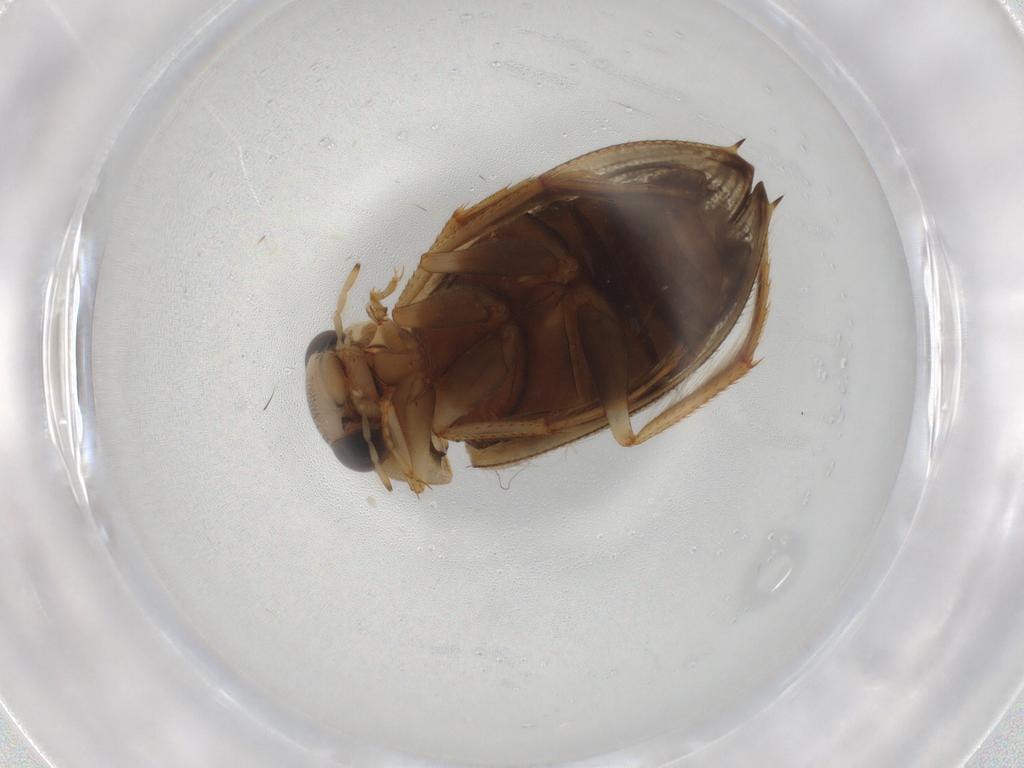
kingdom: Animalia
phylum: Arthropoda
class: Insecta
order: Coleoptera
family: Hydrophilidae
